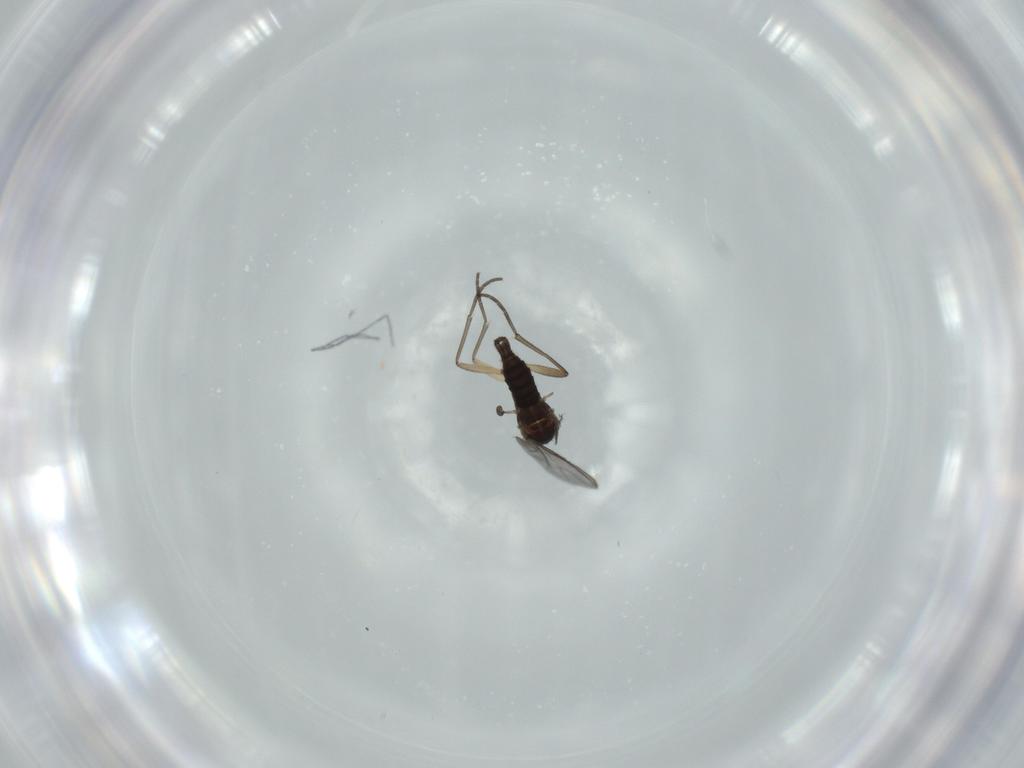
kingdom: Animalia
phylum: Arthropoda
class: Insecta
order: Diptera
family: Sciaridae
